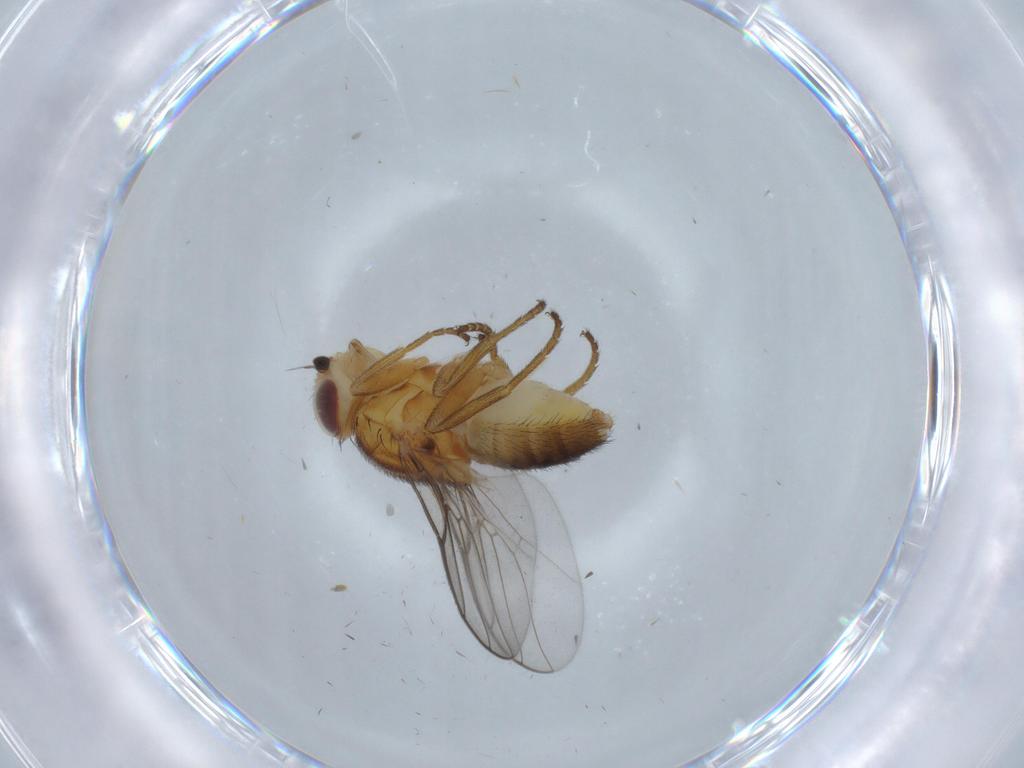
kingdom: Animalia
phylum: Arthropoda
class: Insecta
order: Diptera
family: Chloropidae
